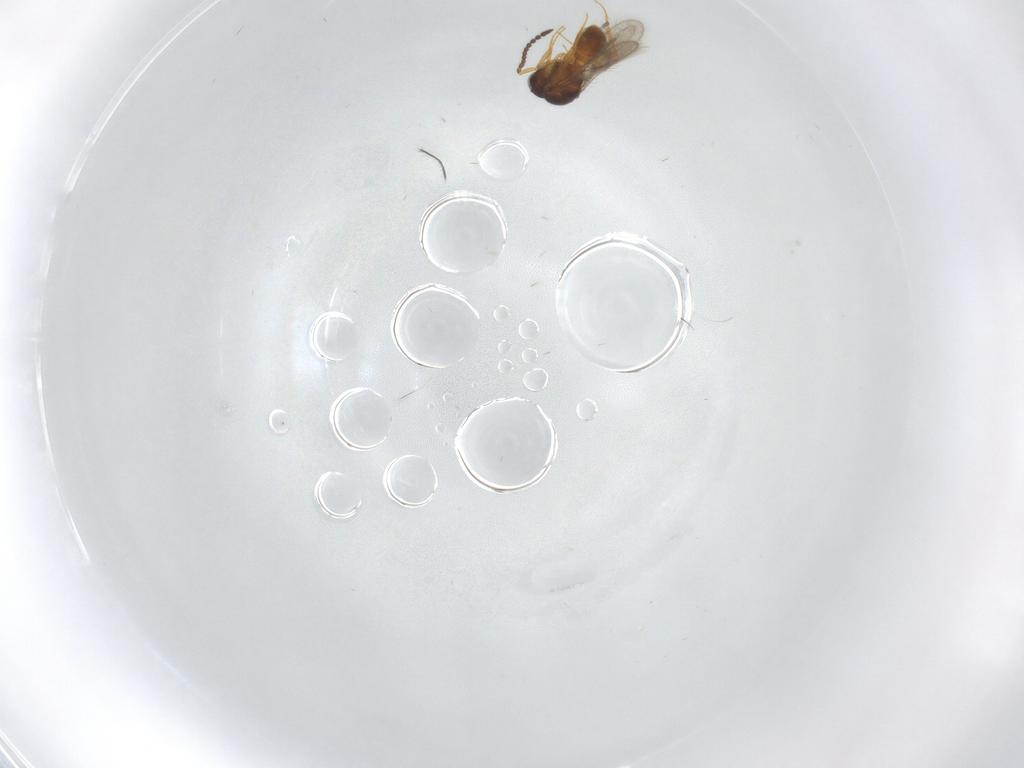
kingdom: Animalia
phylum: Arthropoda
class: Insecta
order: Hymenoptera
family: Scelionidae
